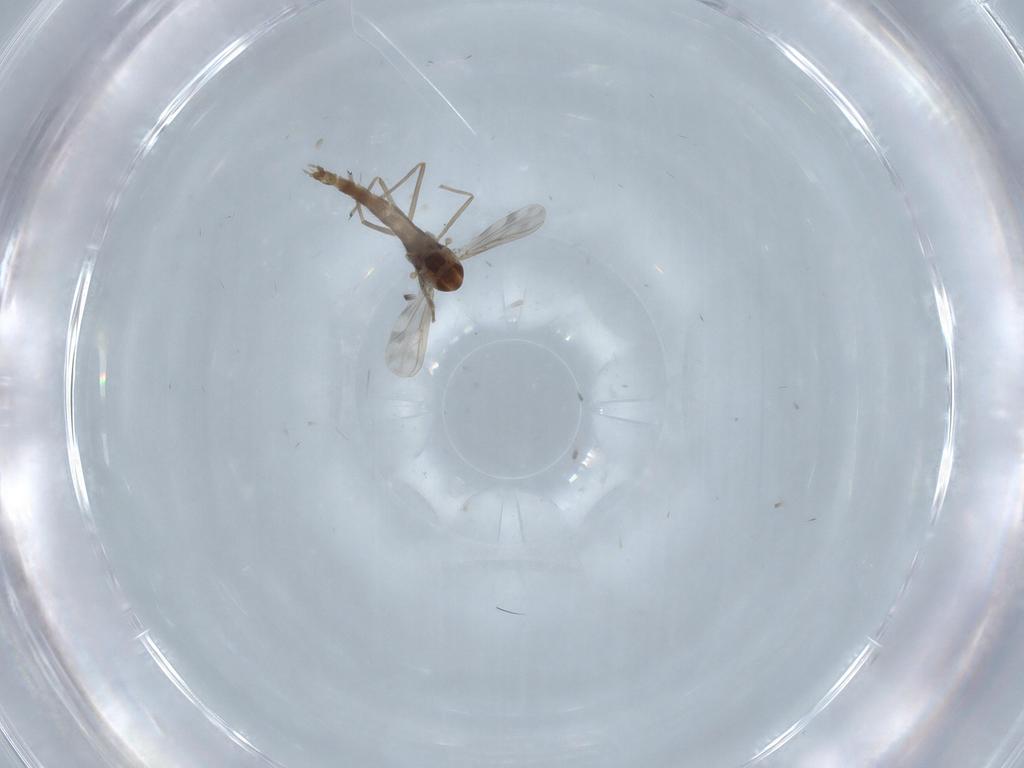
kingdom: Animalia
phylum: Arthropoda
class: Insecta
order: Diptera
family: Chironomidae
